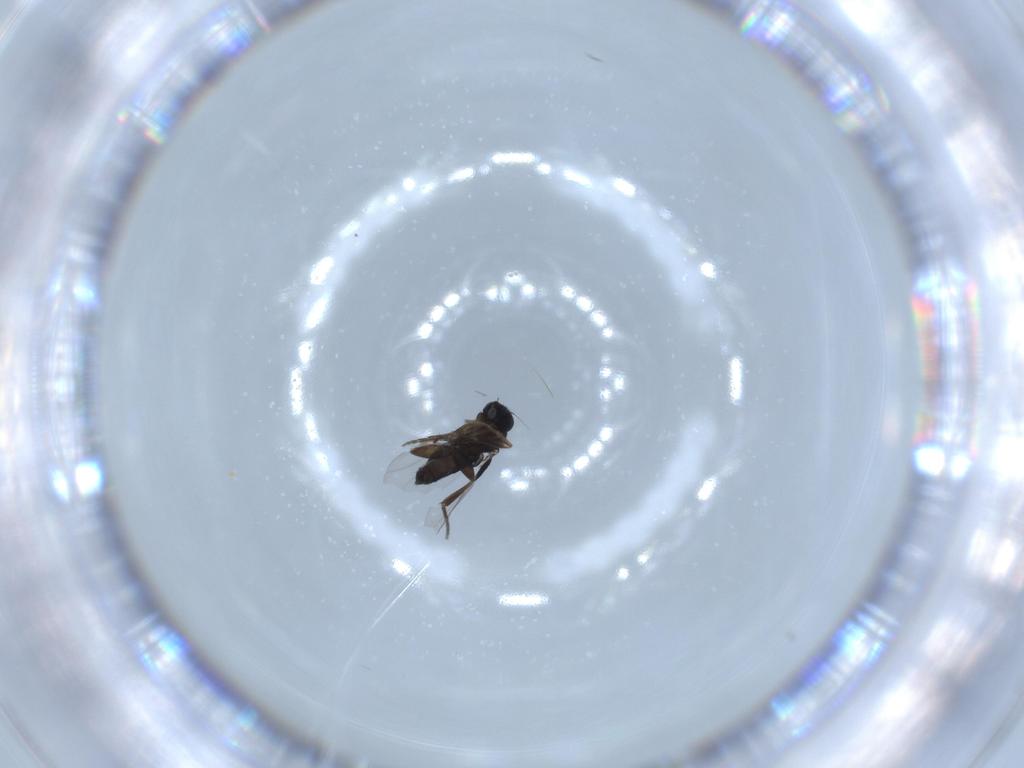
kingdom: Animalia
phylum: Arthropoda
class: Insecta
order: Diptera
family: Phoridae
